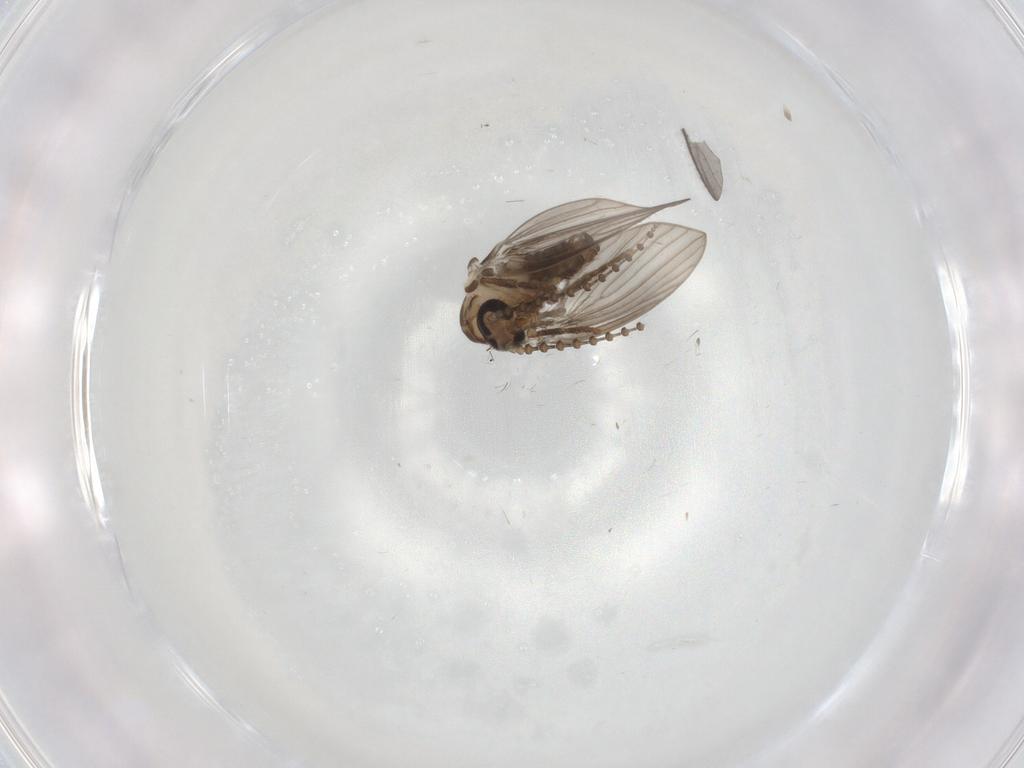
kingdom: Animalia
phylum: Arthropoda
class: Insecta
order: Diptera
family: Psychodidae
